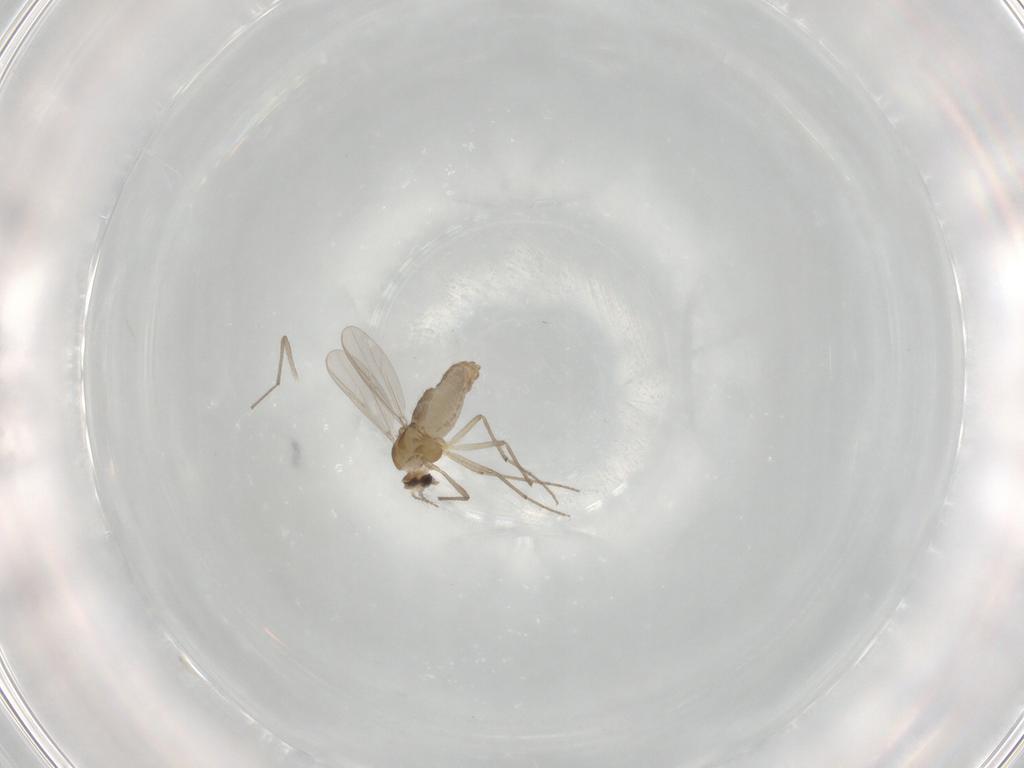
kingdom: Animalia
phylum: Arthropoda
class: Insecta
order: Diptera
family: Chironomidae
